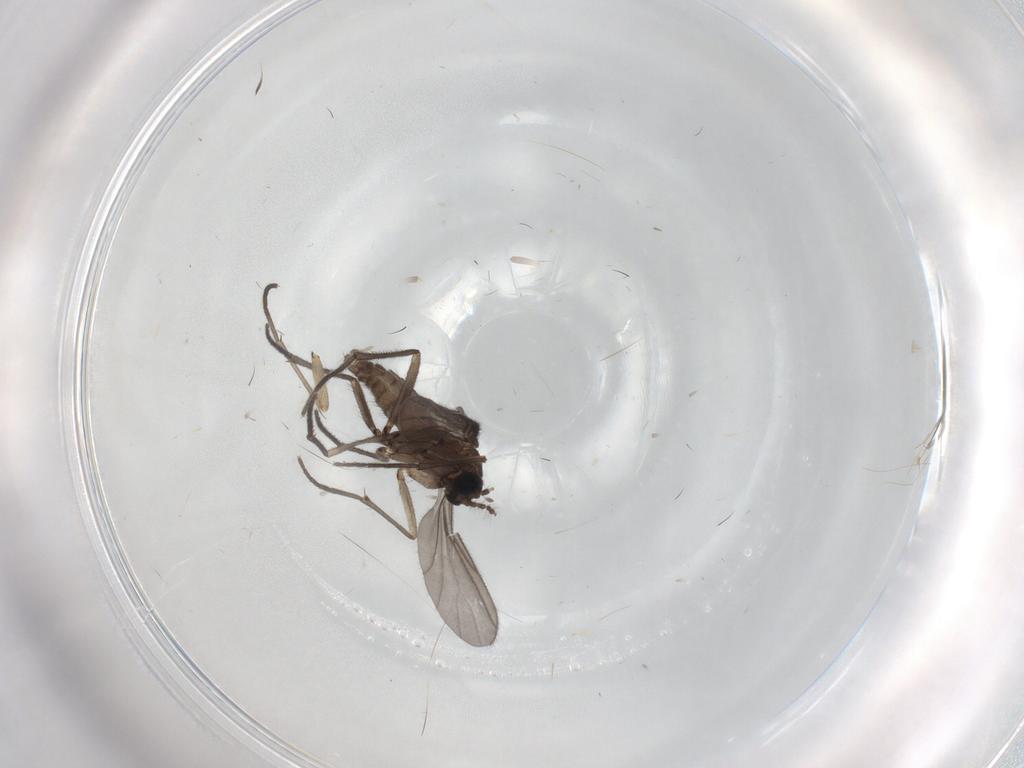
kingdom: Animalia
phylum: Arthropoda
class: Insecta
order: Diptera
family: Sciaridae
